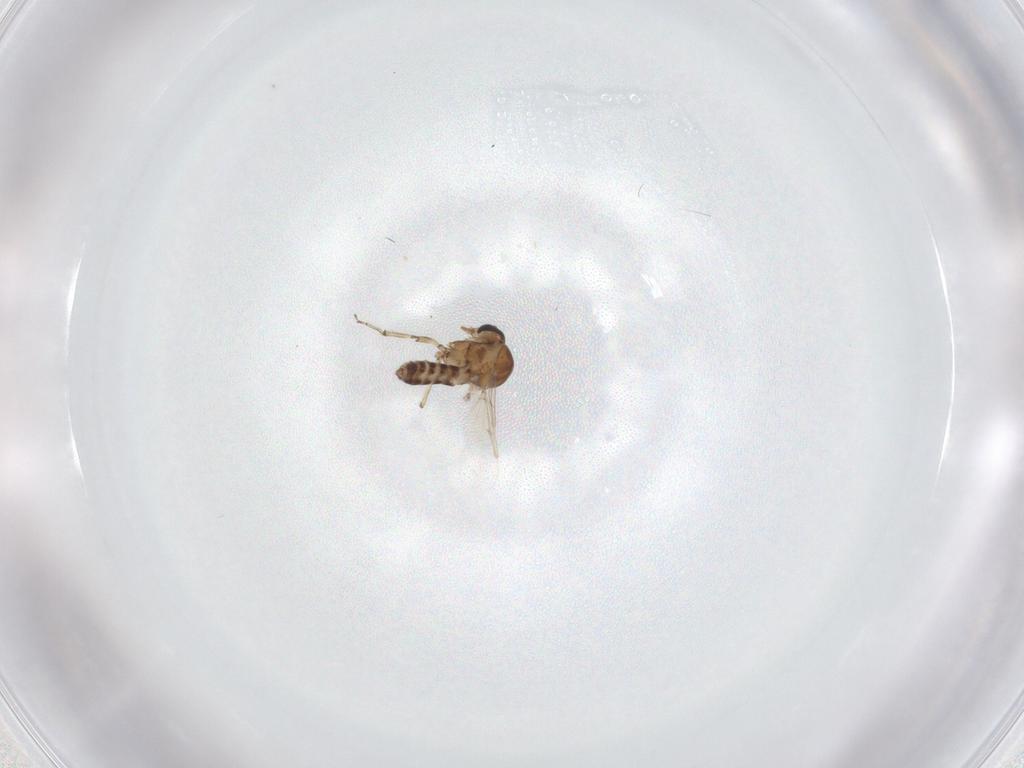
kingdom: Animalia
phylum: Arthropoda
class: Insecta
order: Diptera
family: Ceratopogonidae
